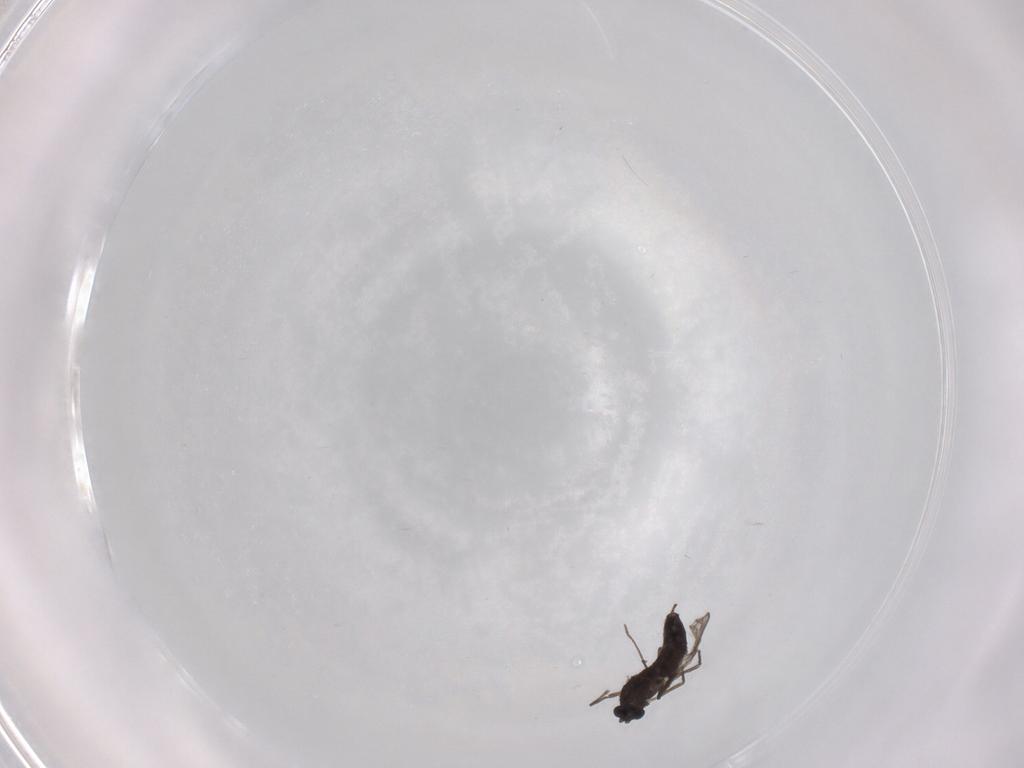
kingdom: Animalia
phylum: Arthropoda
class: Insecta
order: Diptera
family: Chironomidae
